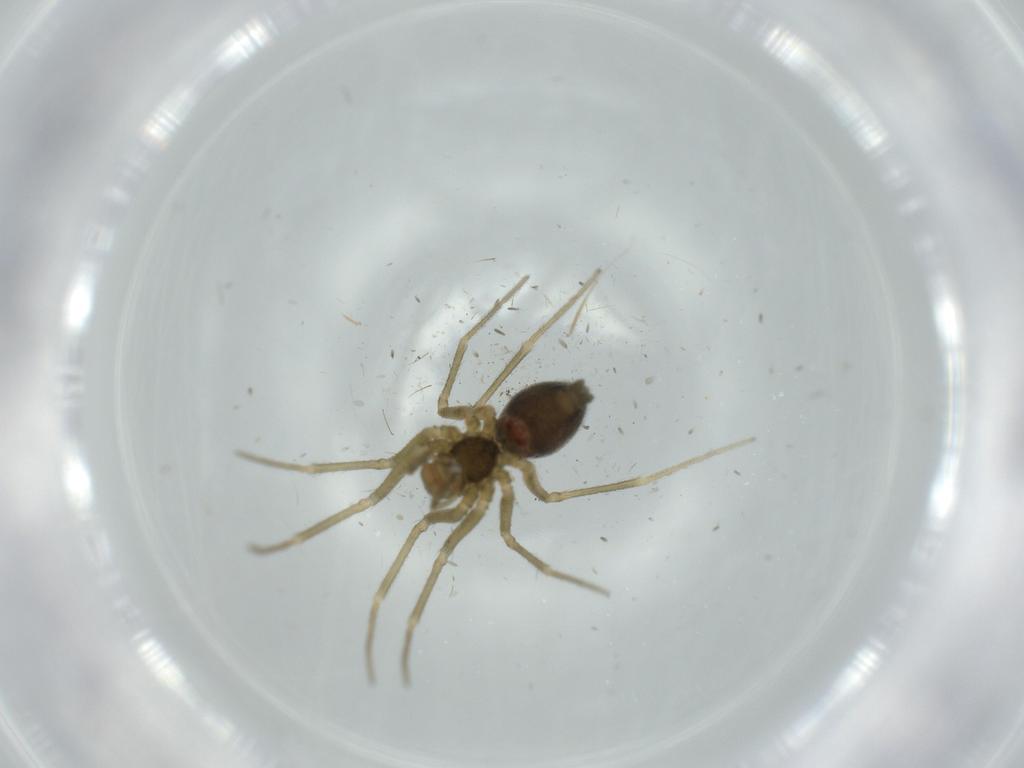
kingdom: Animalia
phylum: Arthropoda
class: Arachnida
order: Araneae
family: Linyphiidae
